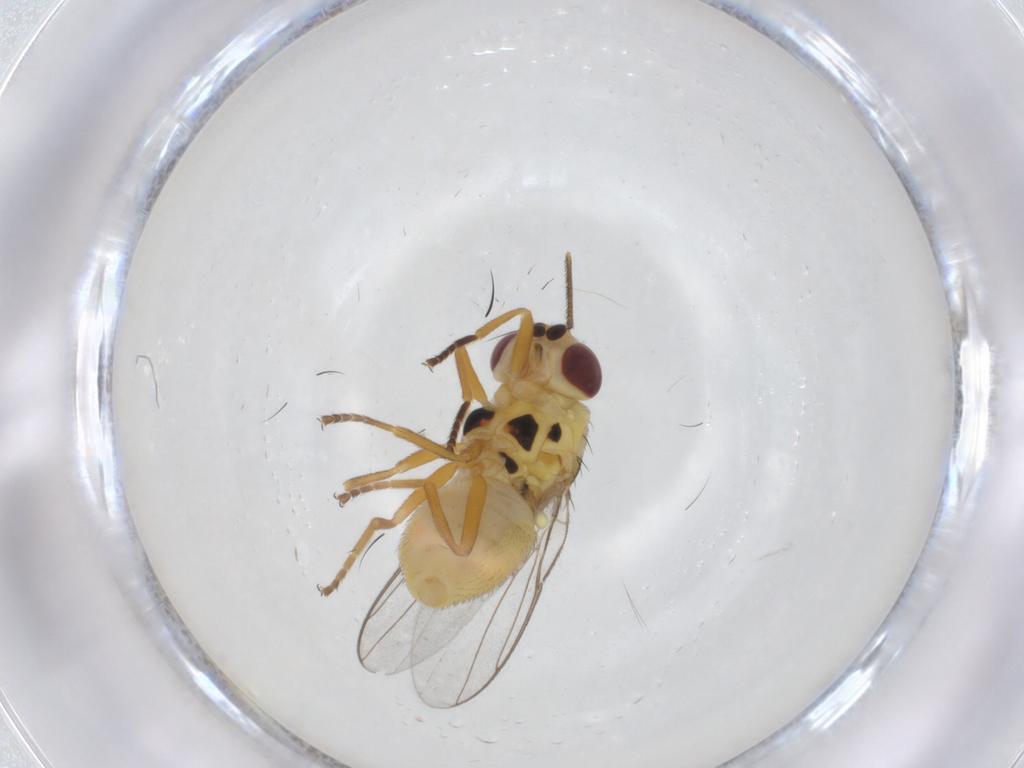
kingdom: Animalia
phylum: Arthropoda
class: Insecta
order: Diptera
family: Chloropidae
